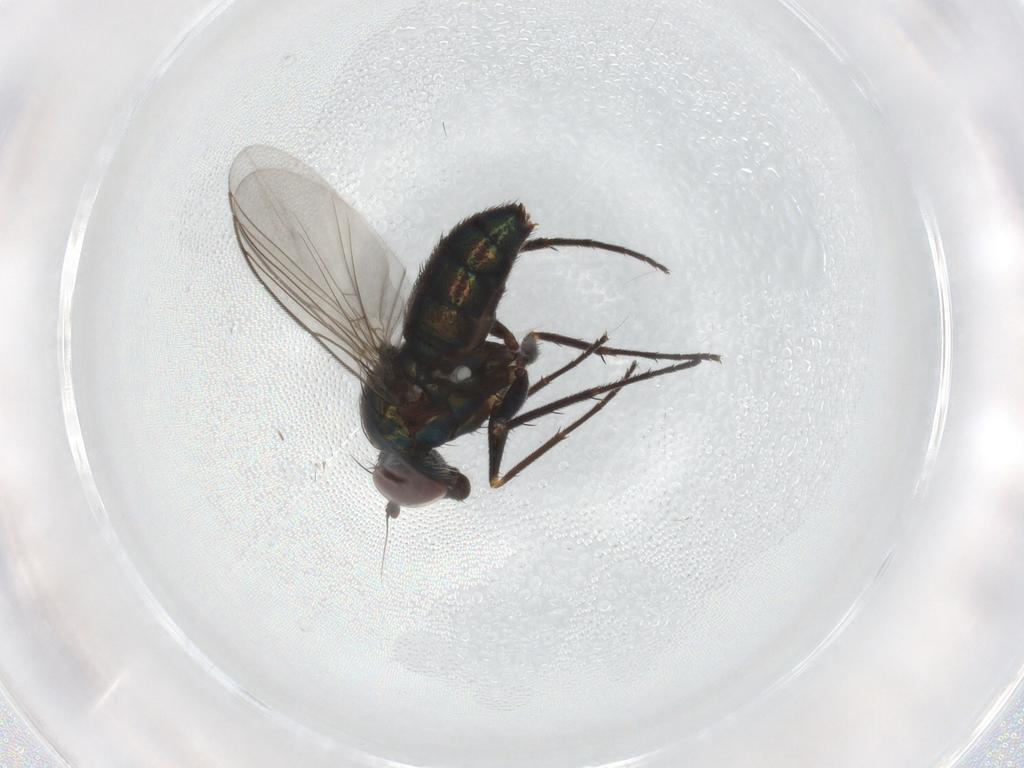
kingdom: Animalia
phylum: Arthropoda
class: Insecta
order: Diptera
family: Dolichopodidae
